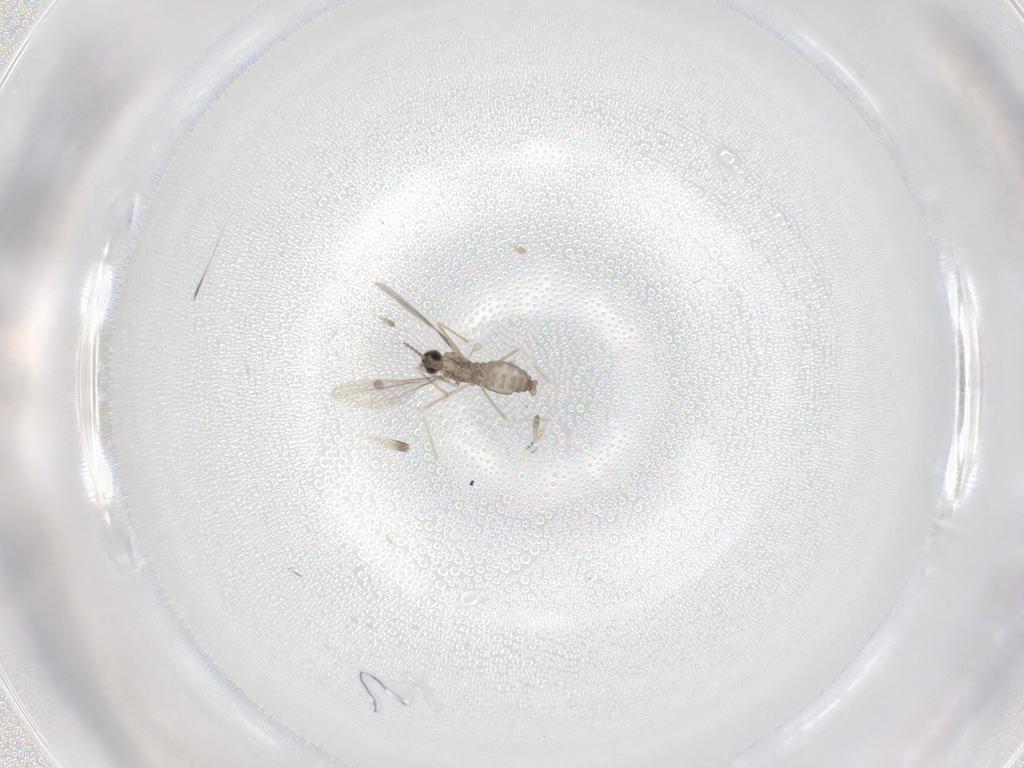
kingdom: Animalia
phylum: Arthropoda
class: Insecta
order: Diptera
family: Cecidomyiidae
